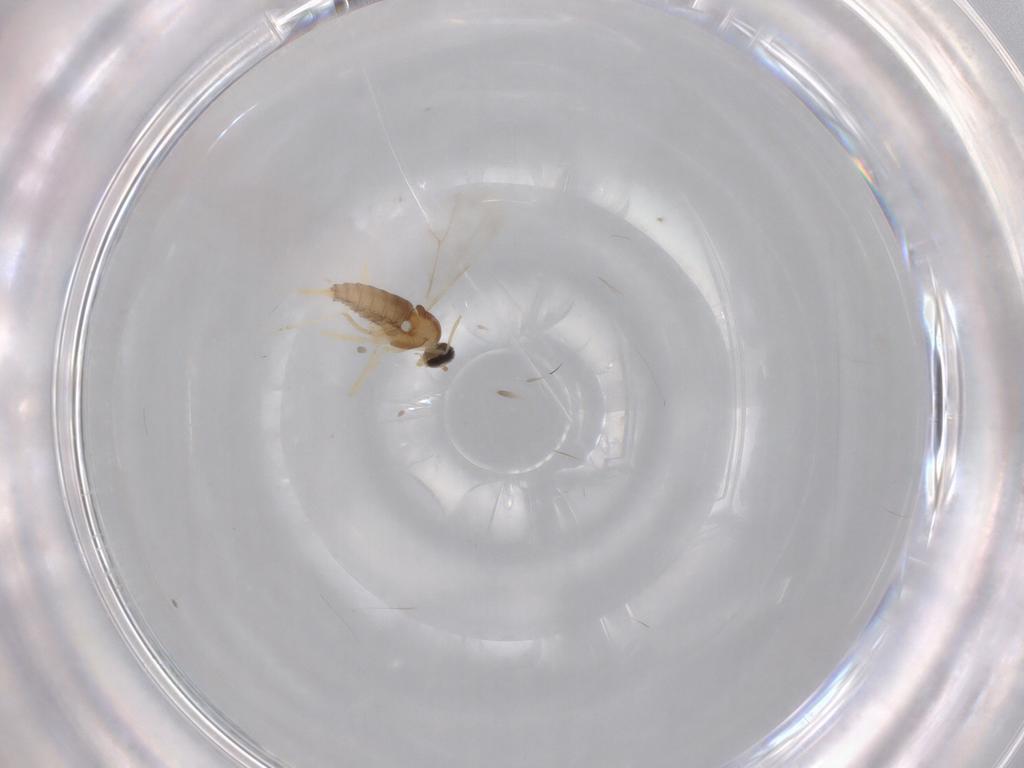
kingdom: Animalia
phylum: Arthropoda
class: Insecta
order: Diptera
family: Cecidomyiidae
